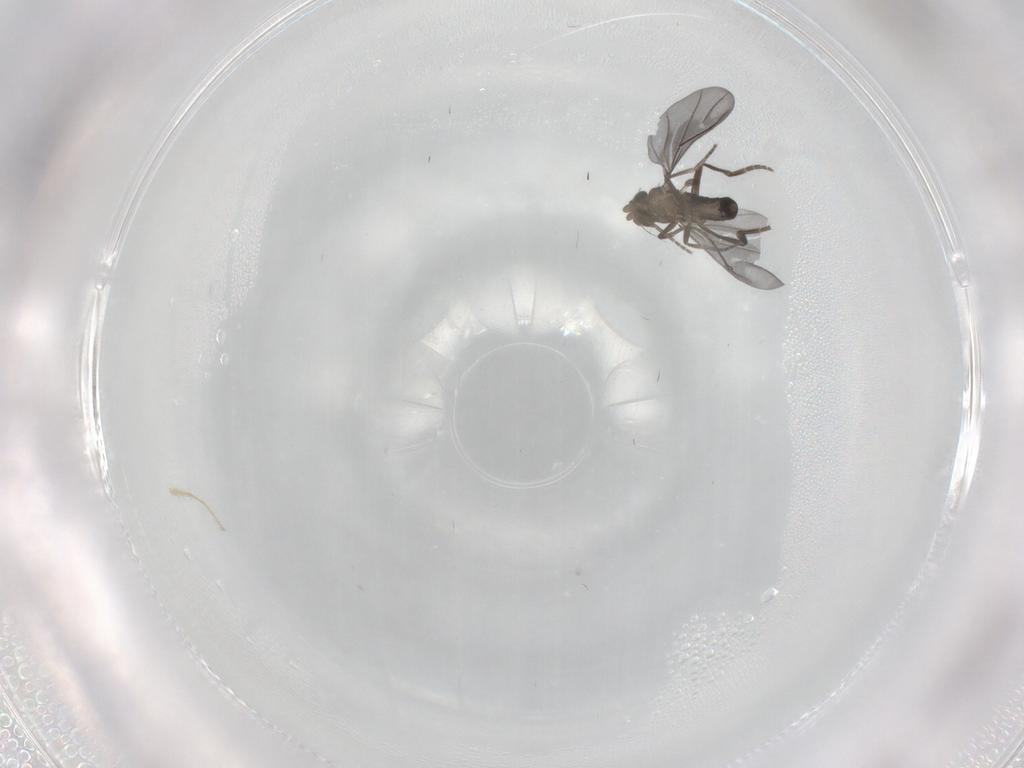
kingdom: Animalia
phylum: Arthropoda
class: Insecta
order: Diptera
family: Phoridae
